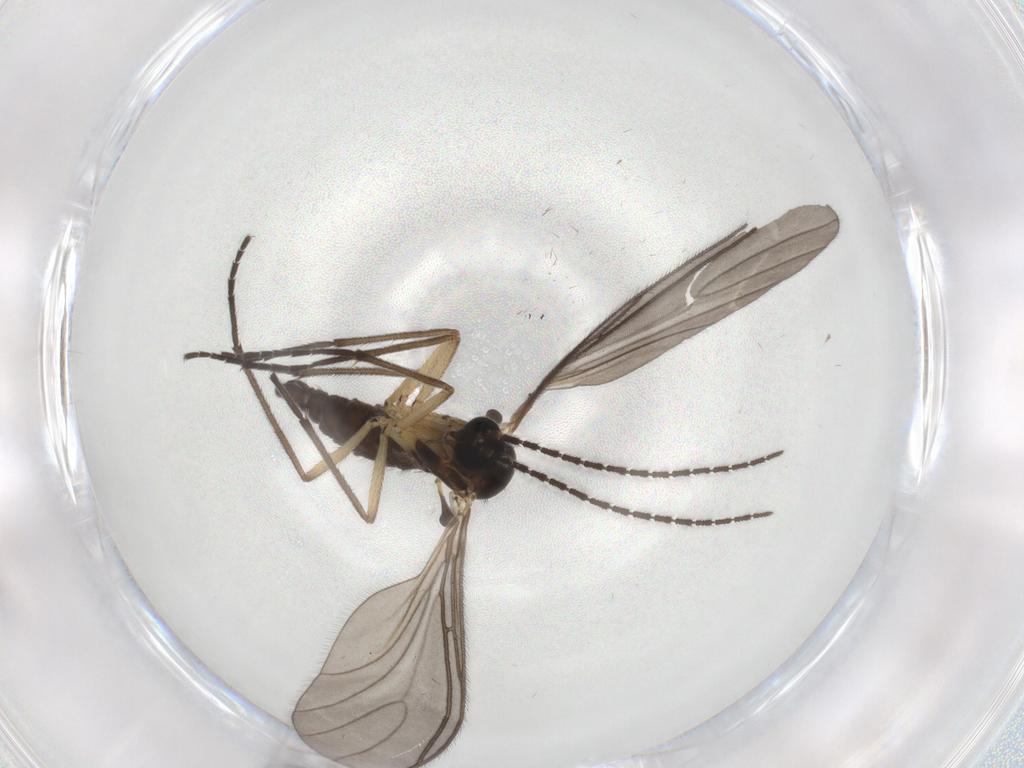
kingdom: Animalia
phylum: Arthropoda
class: Insecta
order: Diptera
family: Sciaridae
